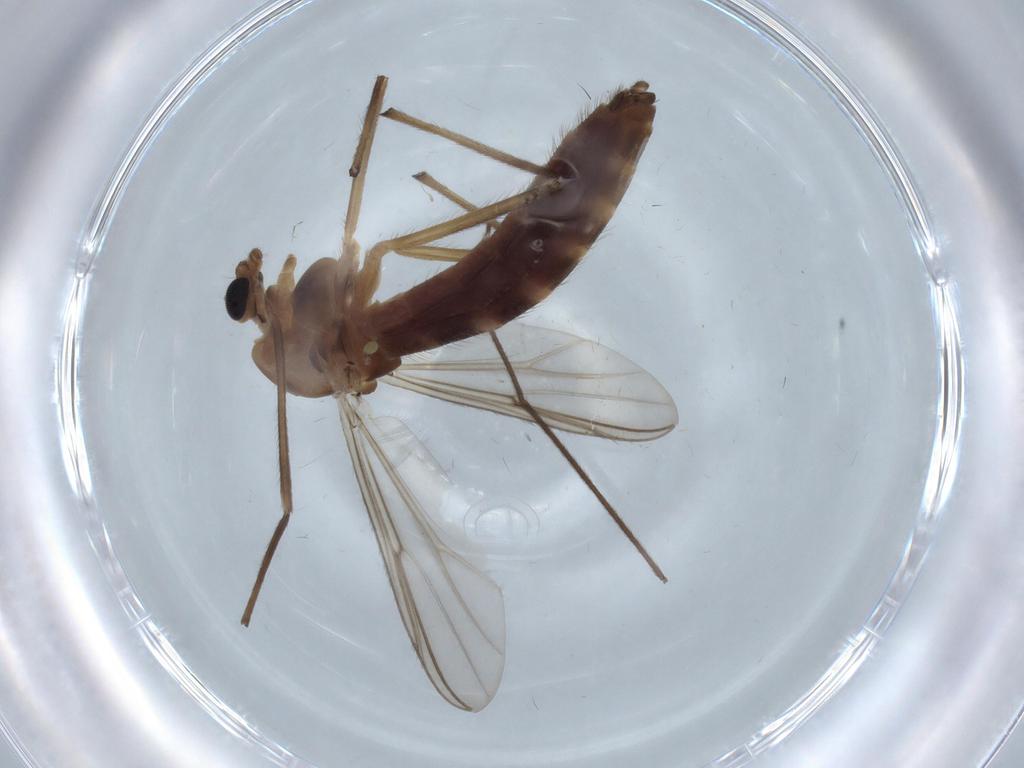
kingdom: Animalia
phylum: Arthropoda
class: Insecta
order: Diptera
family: Chironomidae
